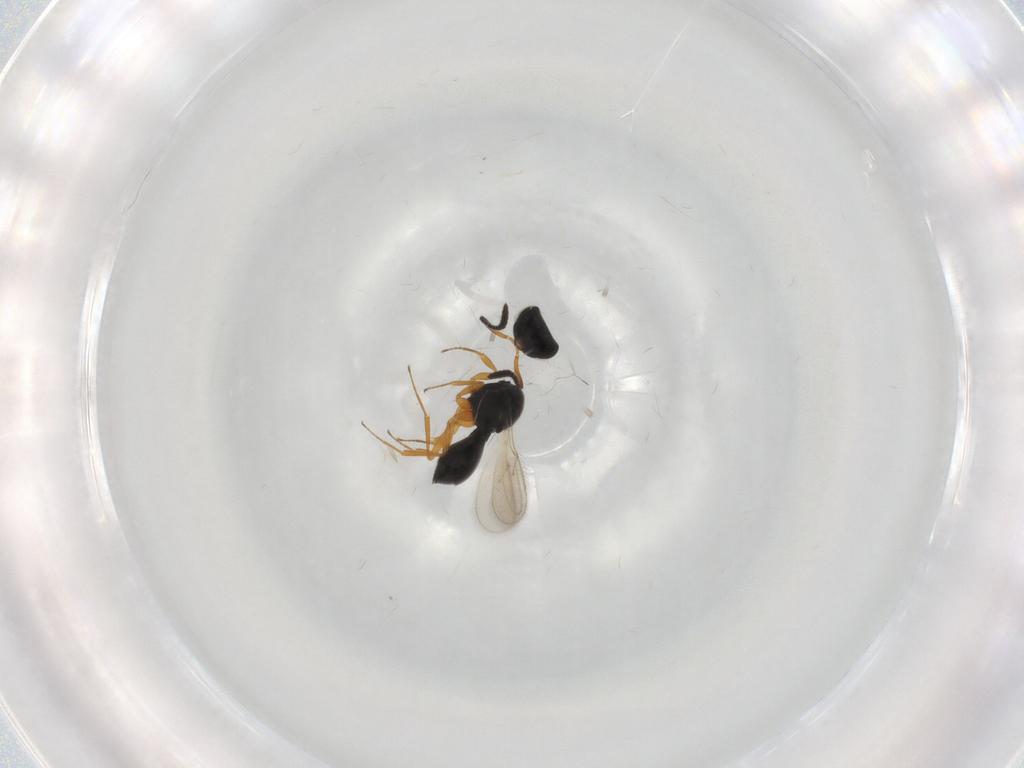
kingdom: Animalia
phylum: Arthropoda
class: Insecta
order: Hymenoptera
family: Scelionidae
